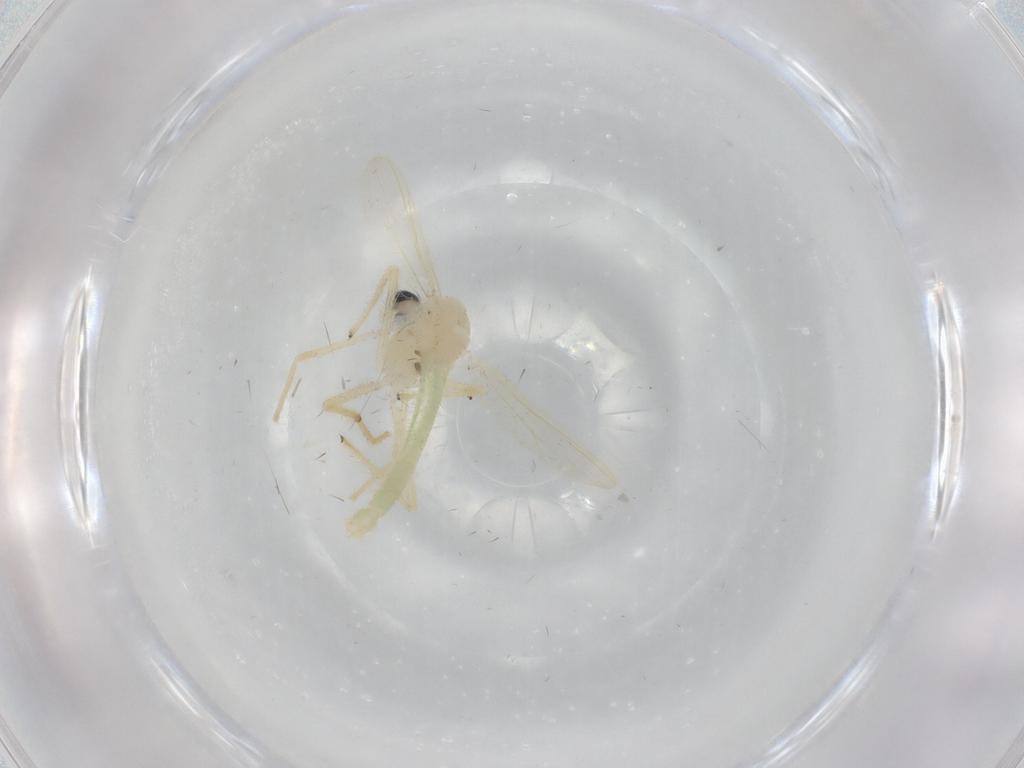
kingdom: Animalia
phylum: Arthropoda
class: Insecta
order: Diptera
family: Chironomidae
